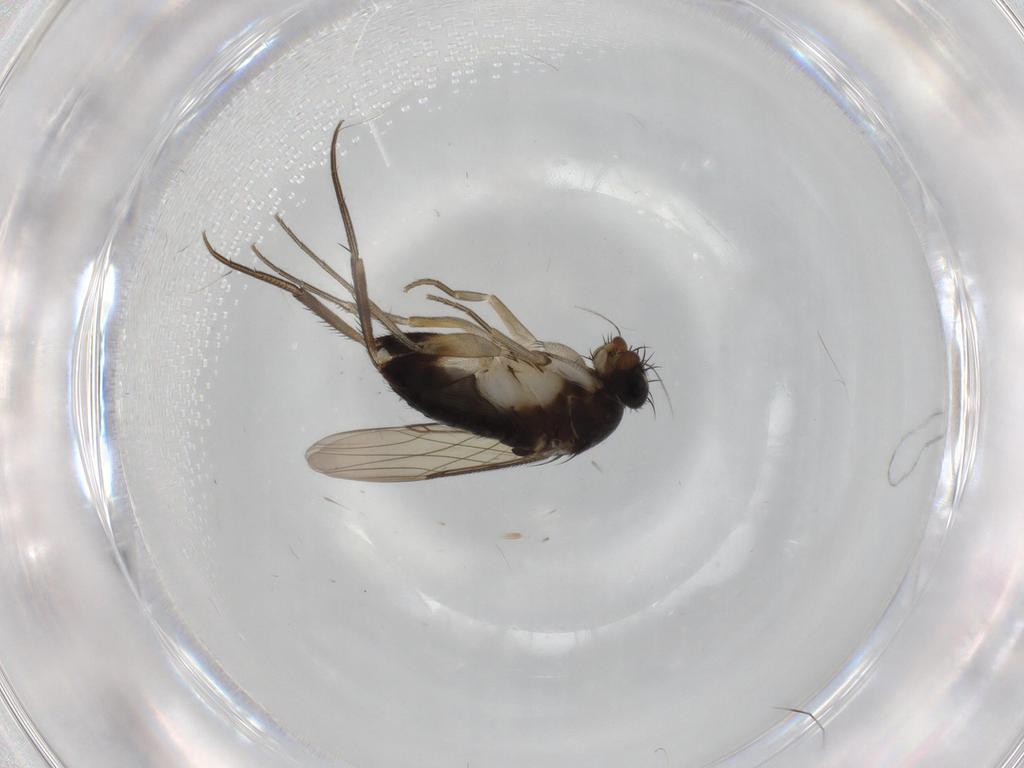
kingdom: Animalia
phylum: Arthropoda
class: Insecta
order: Diptera
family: Phoridae
